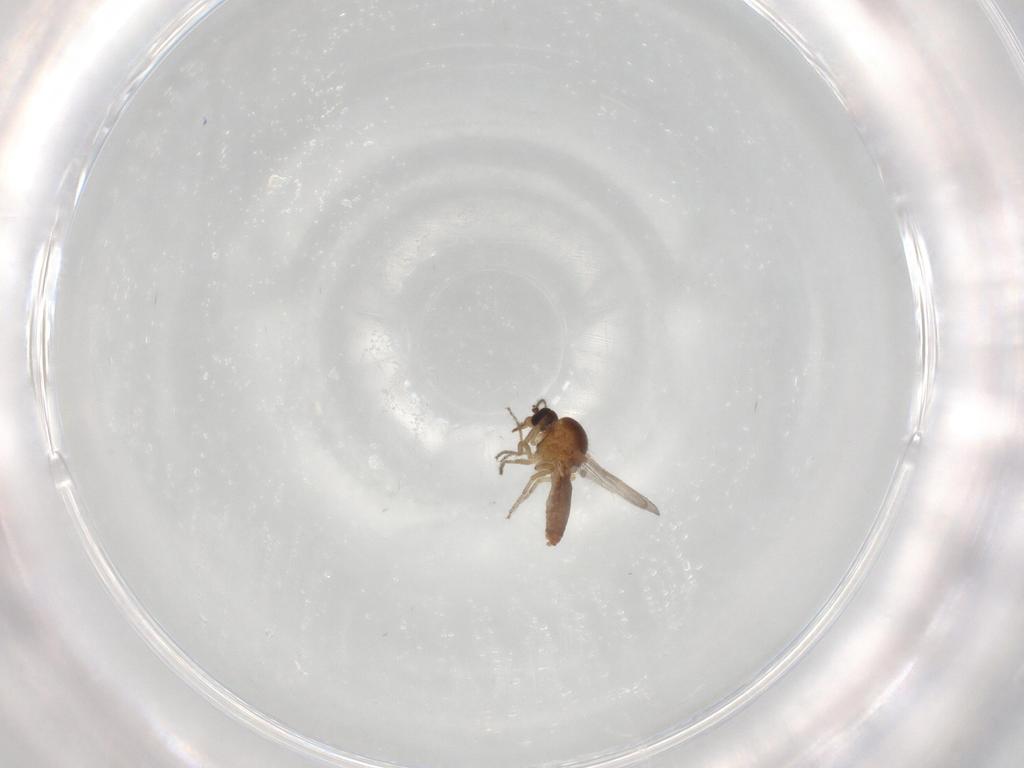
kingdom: Animalia
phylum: Arthropoda
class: Insecta
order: Diptera
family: Ceratopogonidae
